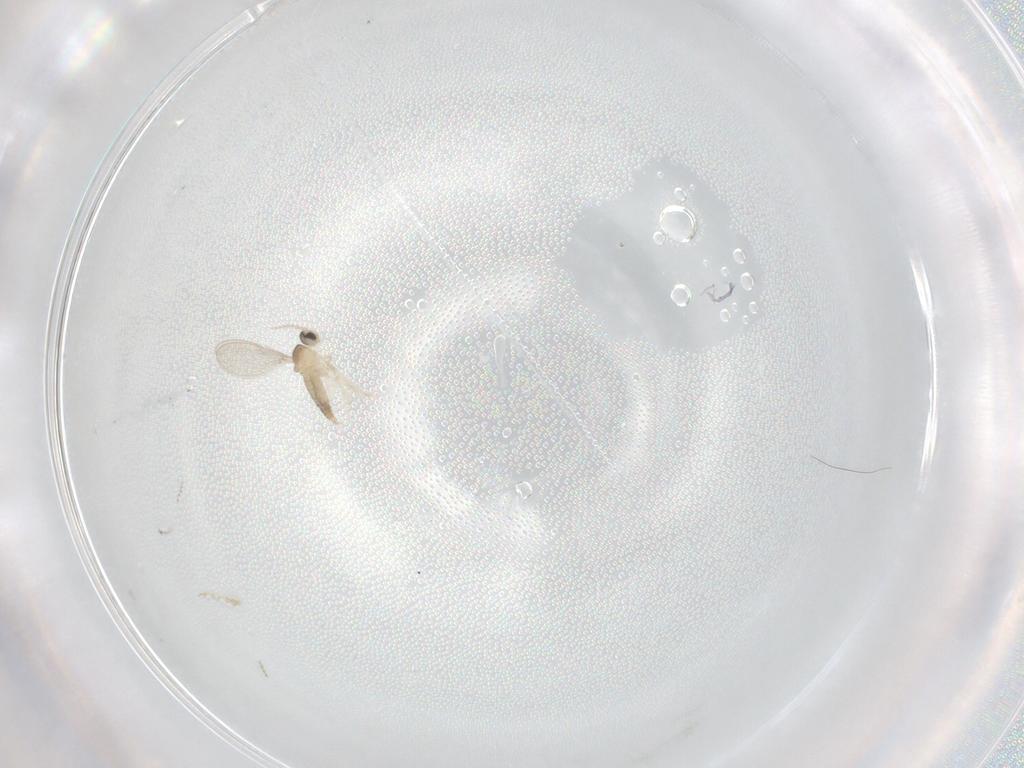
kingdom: Animalia
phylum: Arthropoda
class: Insecta
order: Diptera
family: Cecidomyiidae
